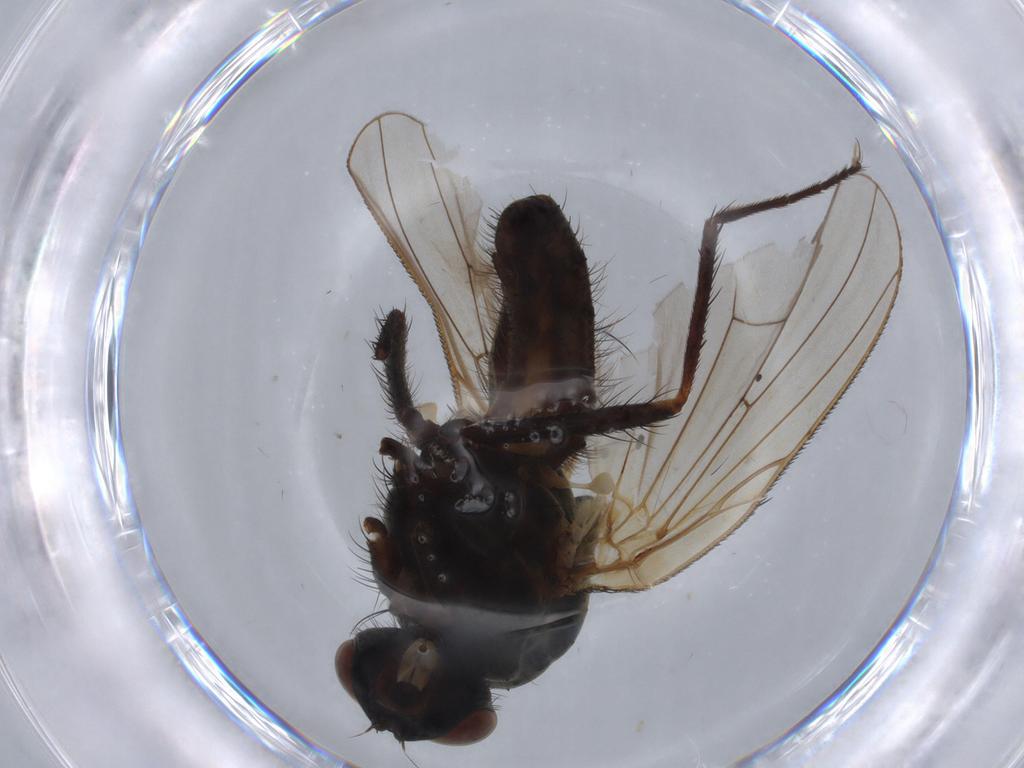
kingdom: Animalia
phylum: Arthropoda
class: Insecta
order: Diptera
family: Anthomyiidae
